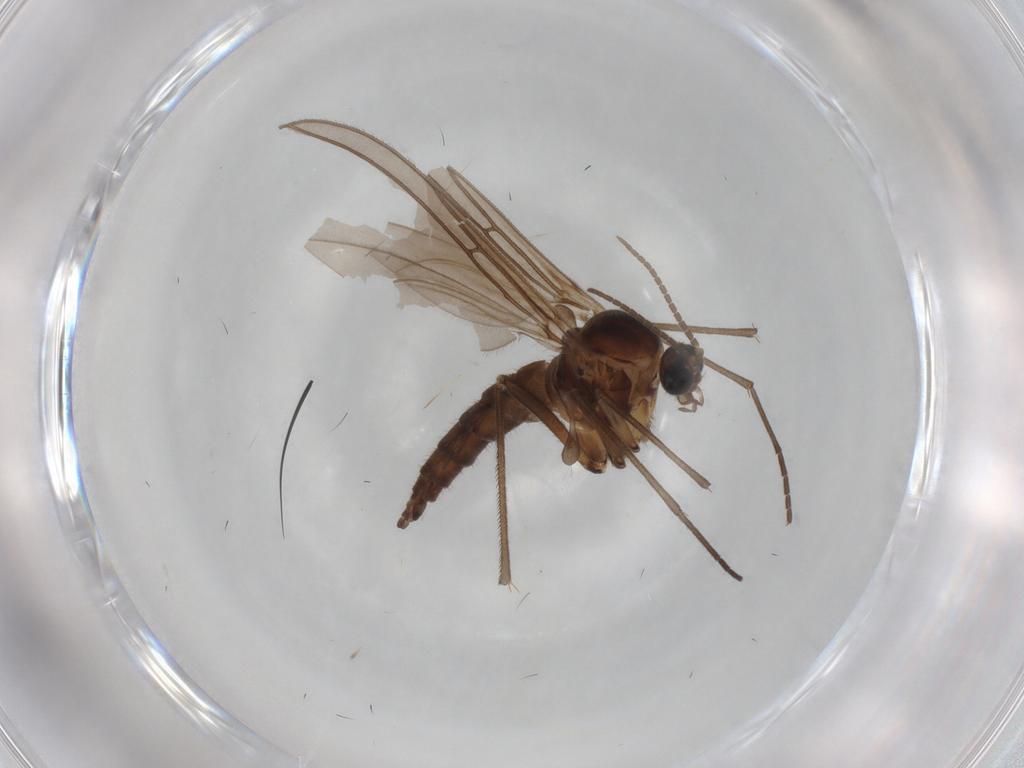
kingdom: Animalia
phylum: Arthropoda
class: Insecta
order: Diptera
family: Sciaridae
